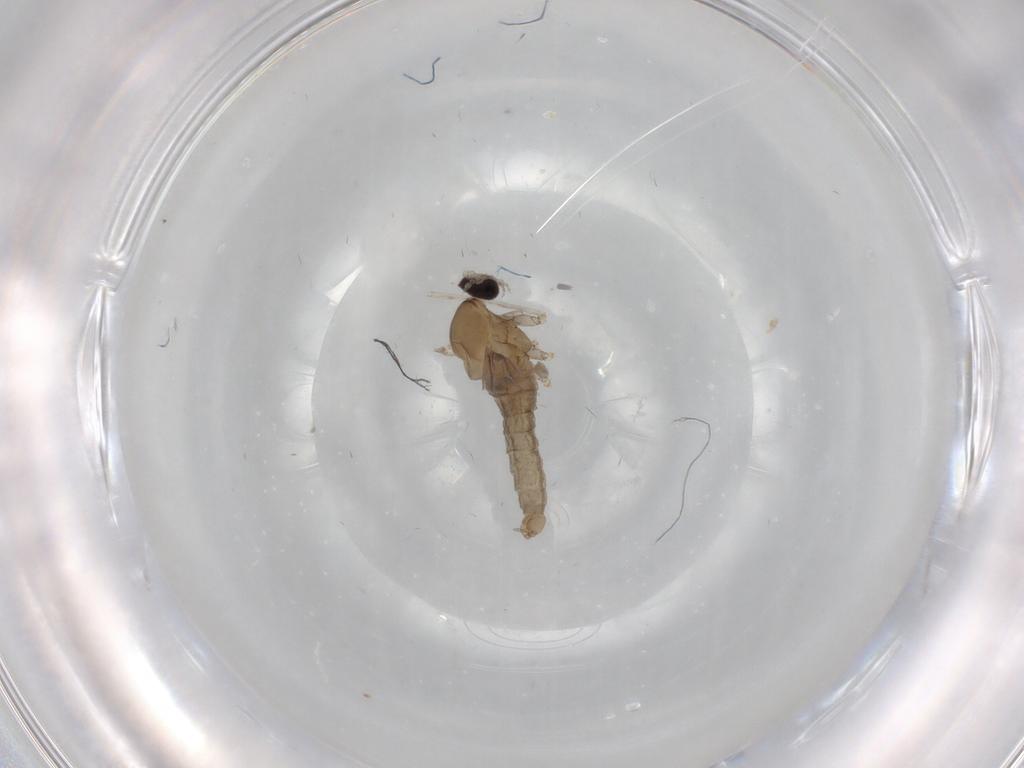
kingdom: Animalia
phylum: Arthropoda
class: Insecta
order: Diptera
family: Cecidomyiidae
